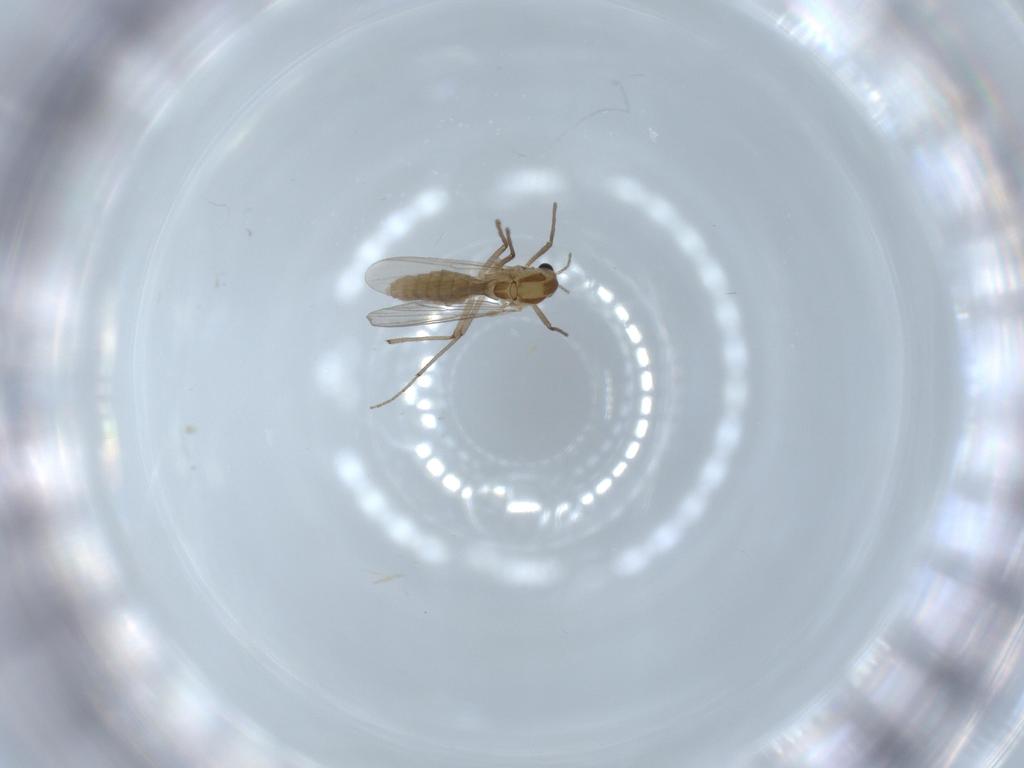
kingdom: Animalia
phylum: Arthropoda
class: Insecta
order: Diptera
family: Chironomidae
